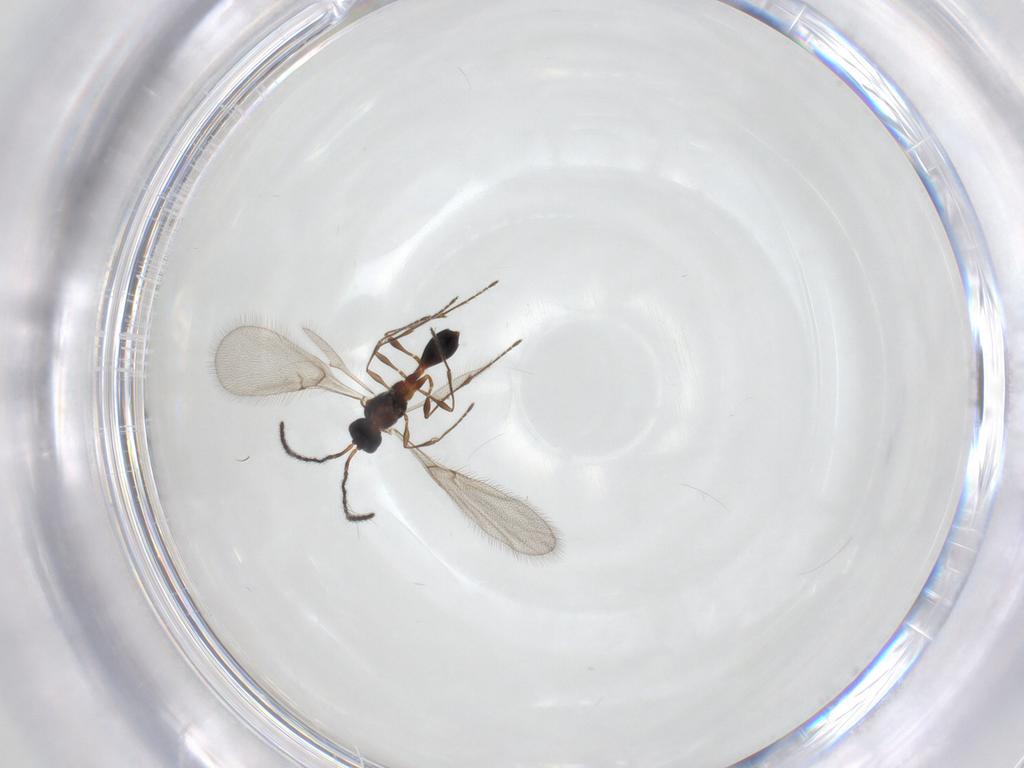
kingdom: Animalia
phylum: Arthropoda
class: Insecta
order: Hymenoptera
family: Diapriidae
